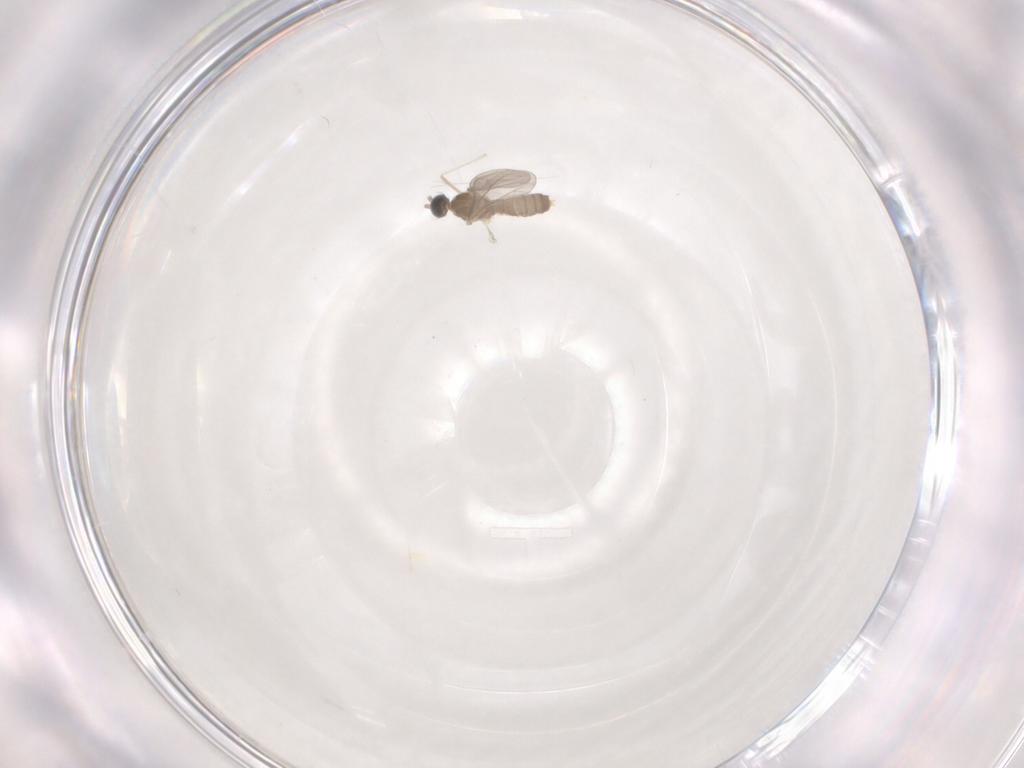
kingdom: Animalia
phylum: Arthropoda
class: Insecta
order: Diptera
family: Cecidomyiidae
